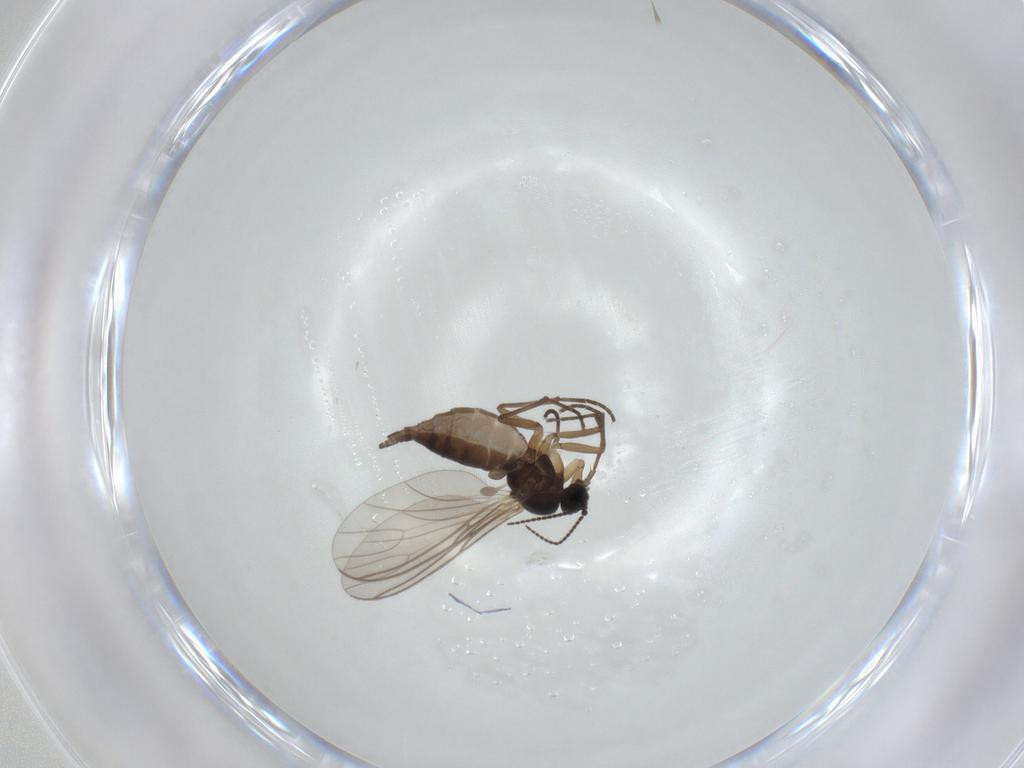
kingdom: Animalia
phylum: Arthropoda
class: Insecta
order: Diptera
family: Sciaridae
